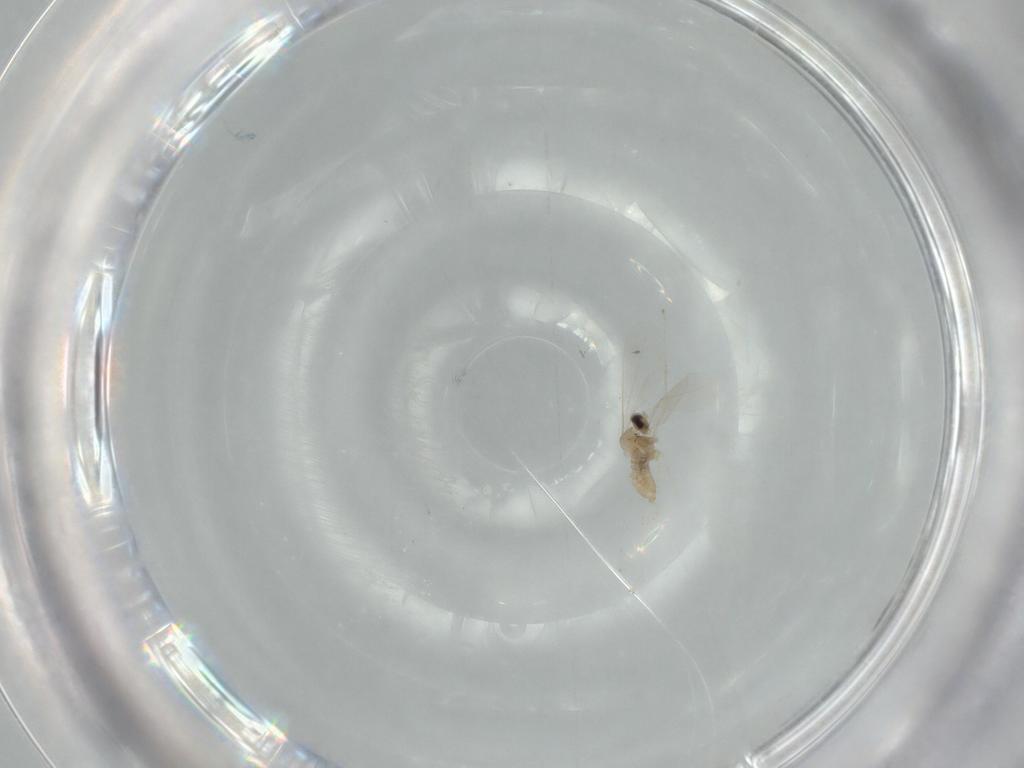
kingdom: Animalia
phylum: Arthropoda
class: Insecta
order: Diptera
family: Cecidomyiidae
